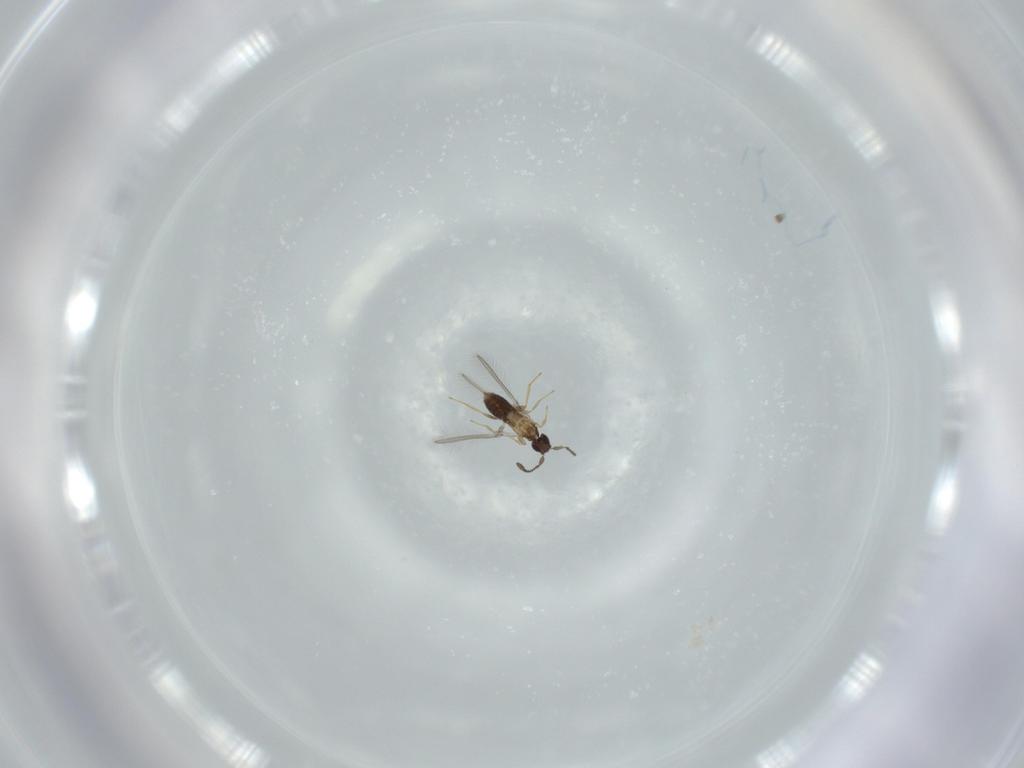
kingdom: Animalia
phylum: Arthropoda
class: Insecta
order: Hymenoptera
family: Mymaridae
